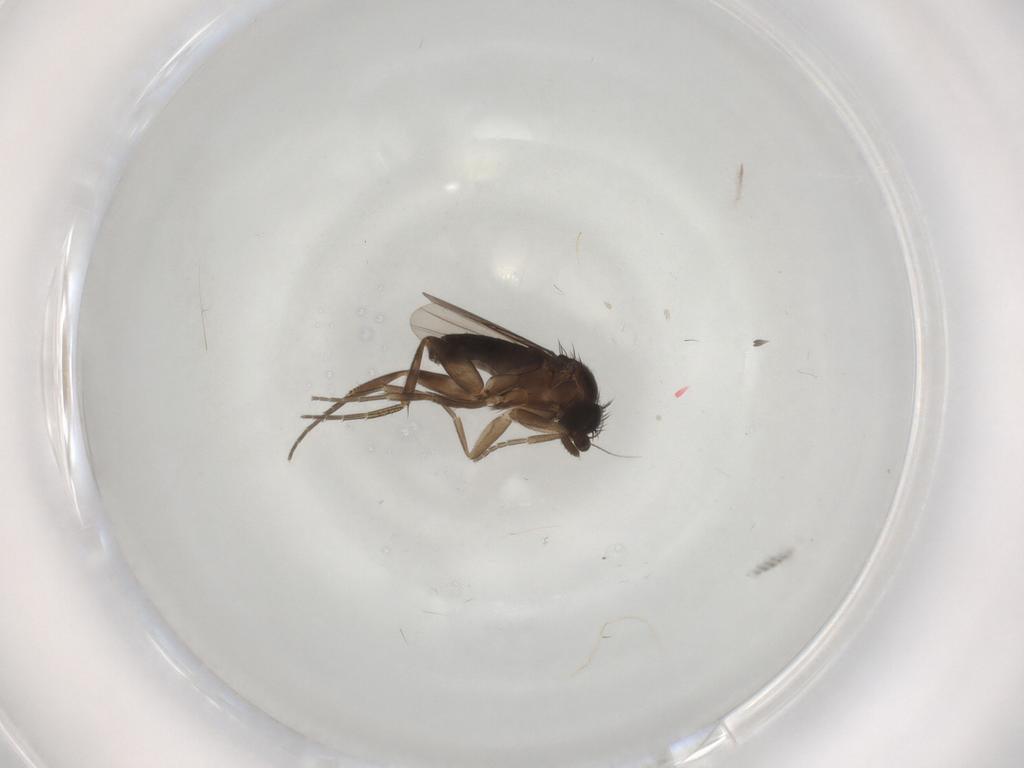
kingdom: Animalia
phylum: Arthropoda
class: Insecta
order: Diptera
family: Phoridae
